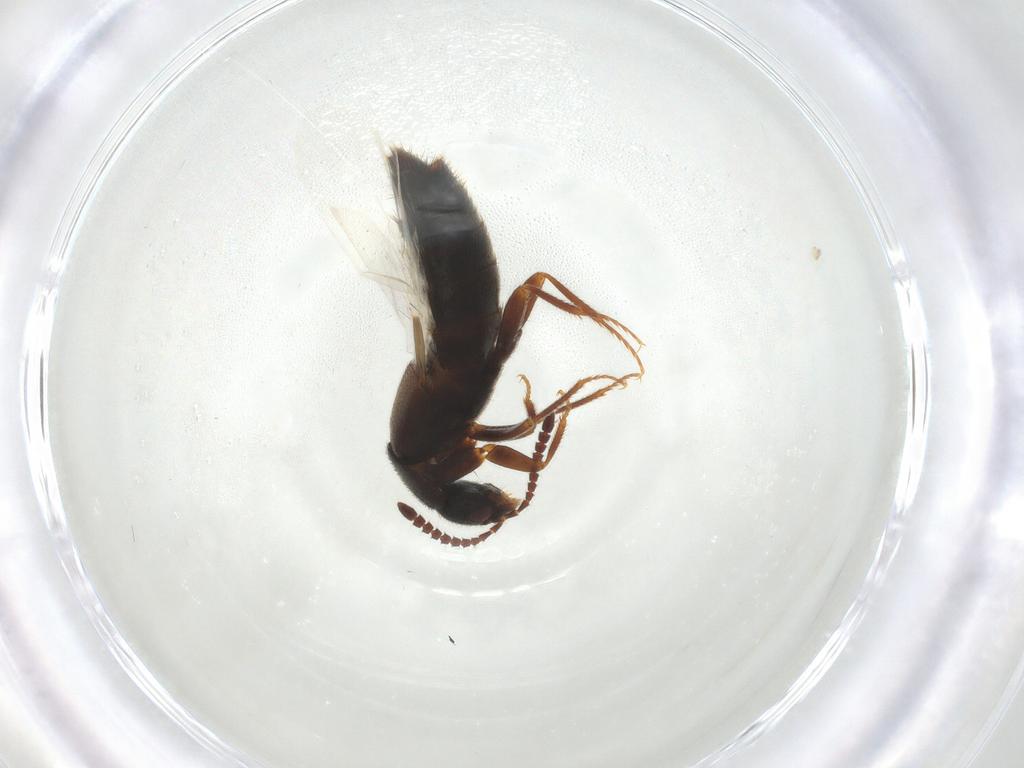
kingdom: Animalia
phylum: Arthropoda
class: Insecta
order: Coleoptera
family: Staphylinidae
